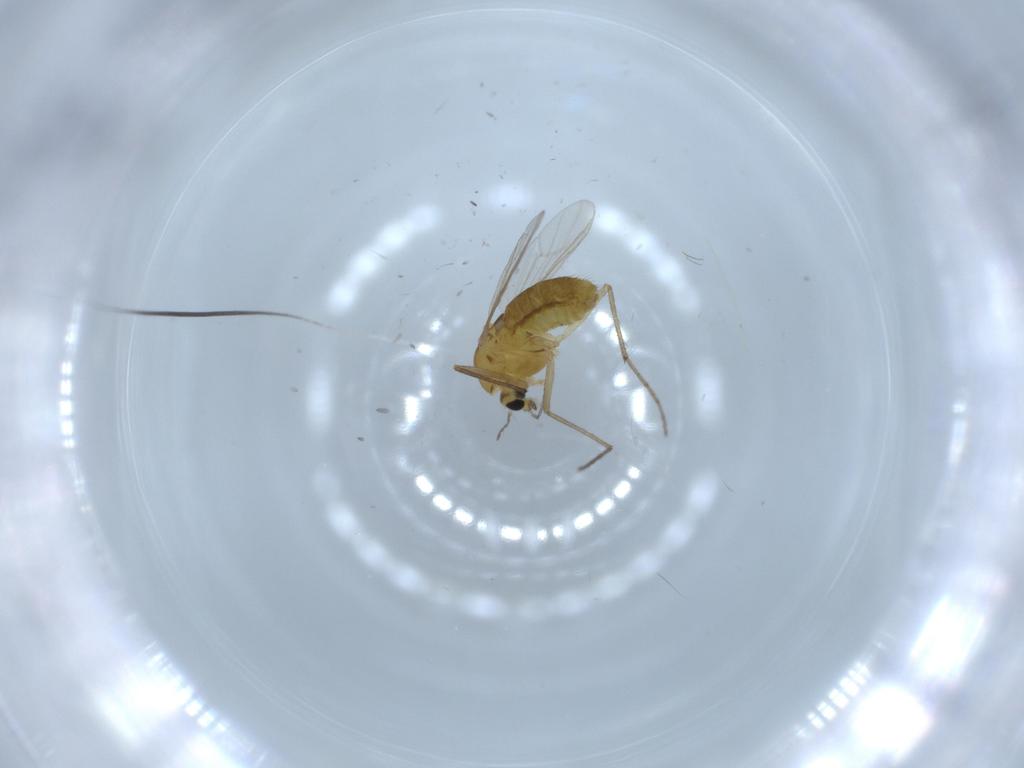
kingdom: Animalia
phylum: Arthropoda
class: Insecta
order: Diptera
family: Chironomidae
